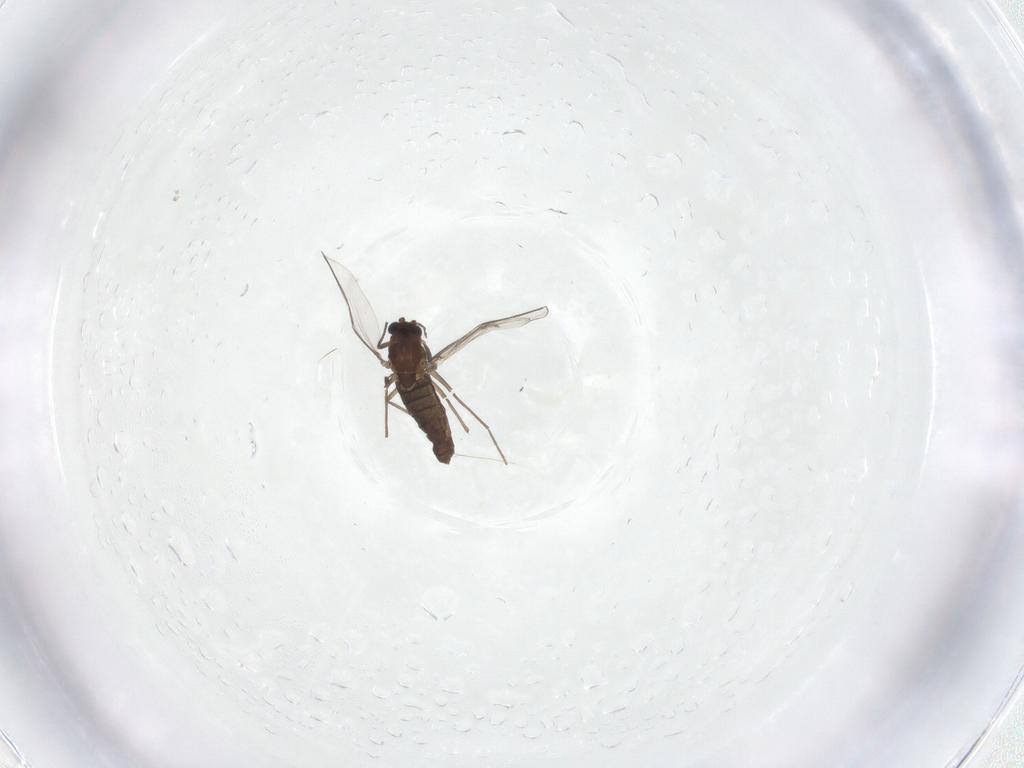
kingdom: Animalia
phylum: Arthropoda
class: Insecta
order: Diptera
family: Chironomidae
